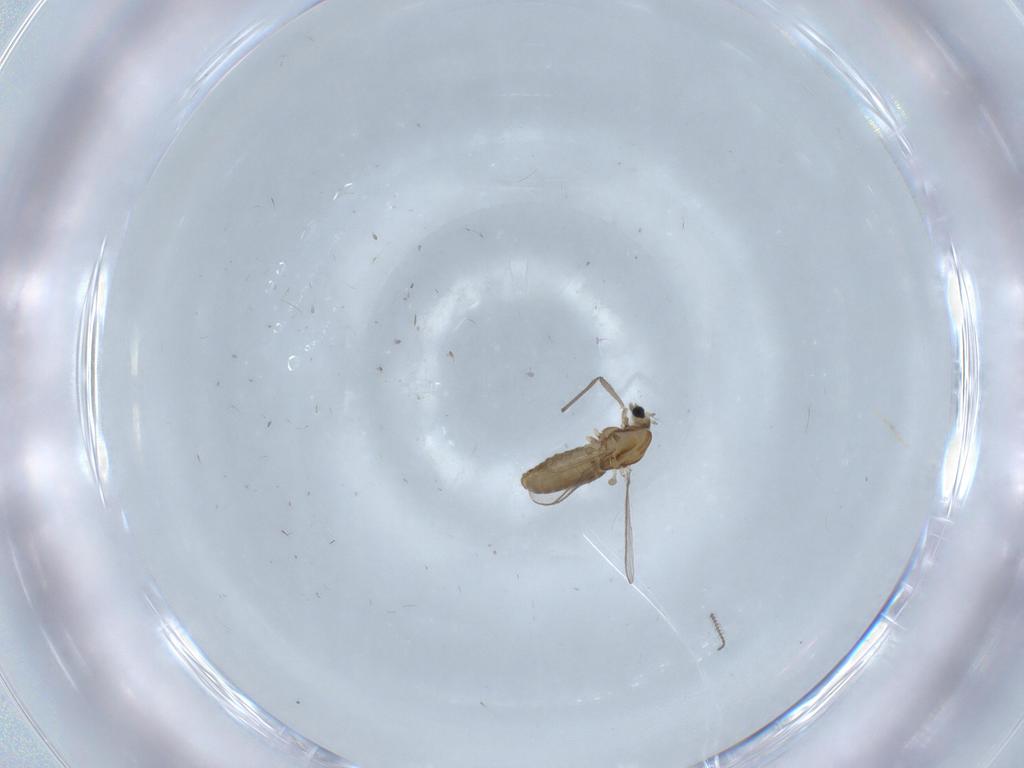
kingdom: Animalia
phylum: Arthropoda
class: Insecta
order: Diptera
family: Chironomidae
